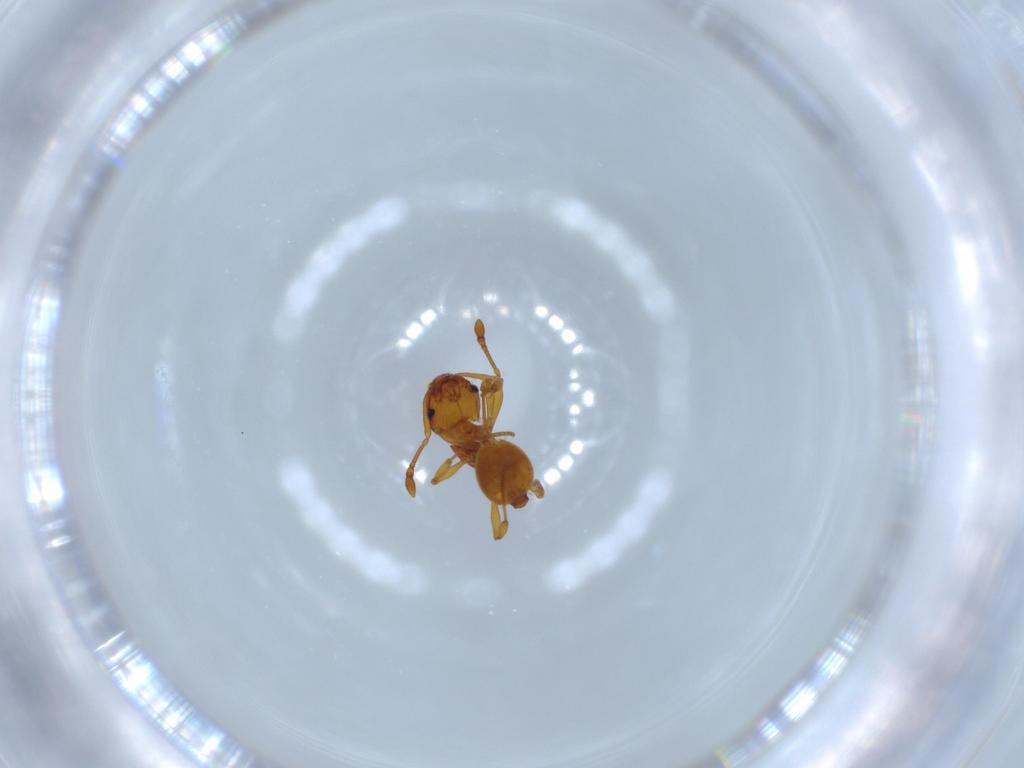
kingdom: Animalia
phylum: Arthropoda
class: Insecta
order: Hymenoptera
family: Formicidae
